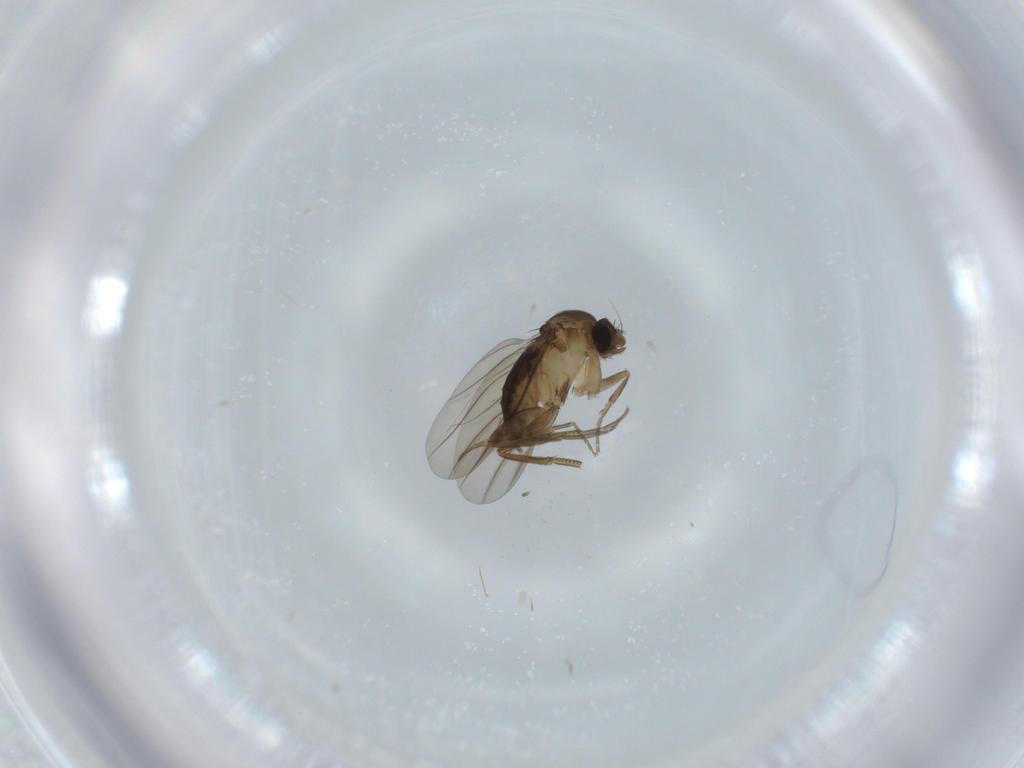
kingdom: Animalia
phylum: Arthropoda
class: Insecta
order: Diptera
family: Phoridae
